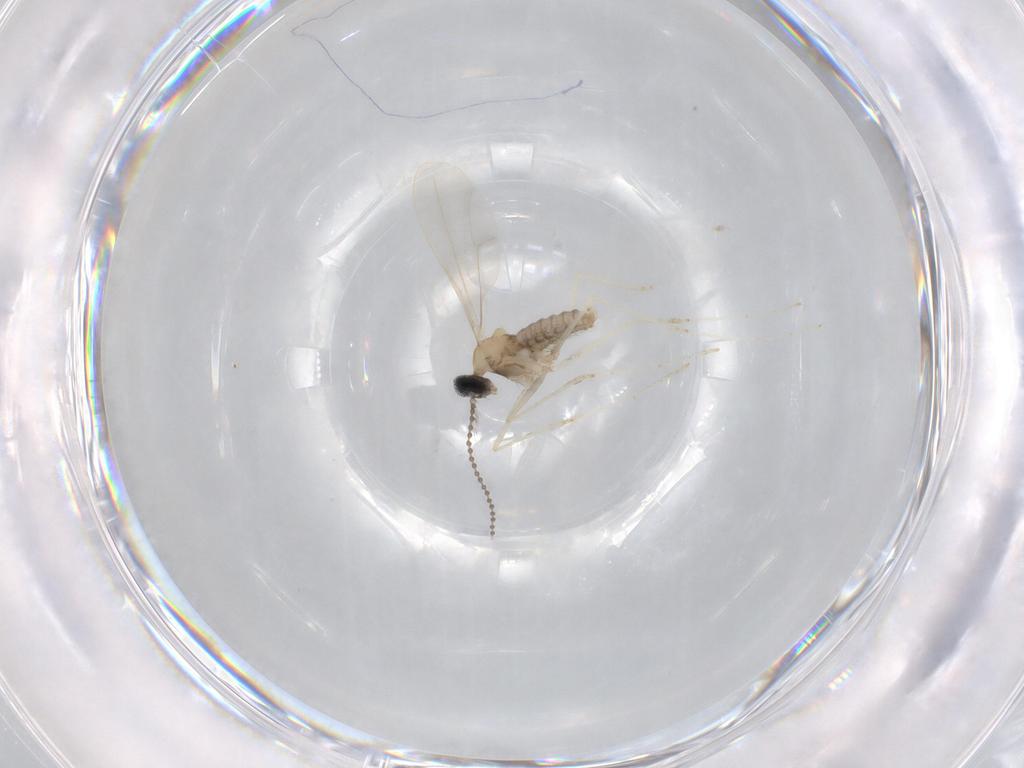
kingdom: Animalia
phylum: Arthropoda
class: Insecta
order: Diptera
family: Cecidomyiidae
